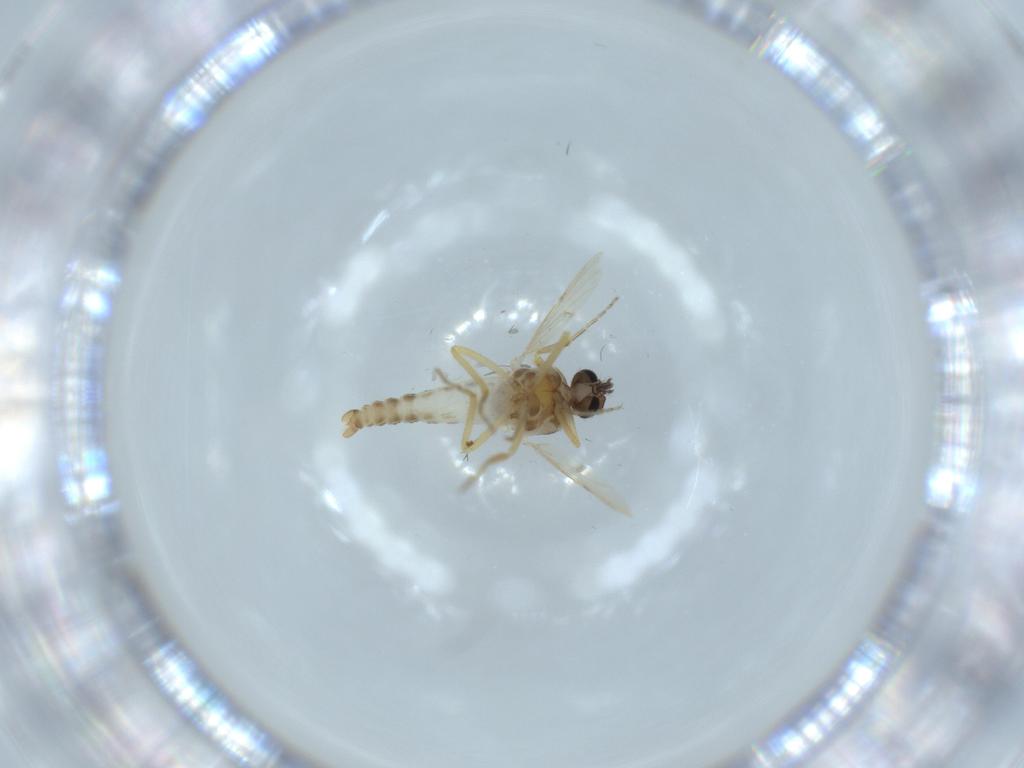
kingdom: Animalia
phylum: Arthropoda
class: Insecta
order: Diptera
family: Ceratopogonidae
